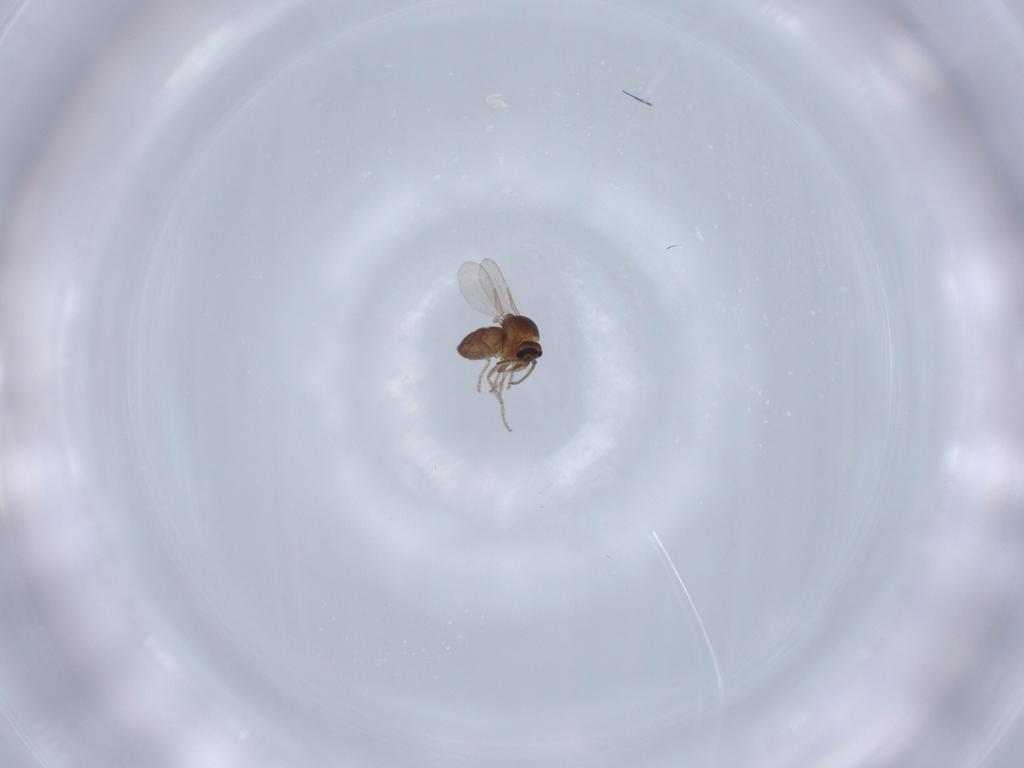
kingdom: Animalia
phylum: Arthropoda
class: Insecta
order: Diptera
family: Ceratopogonidae
